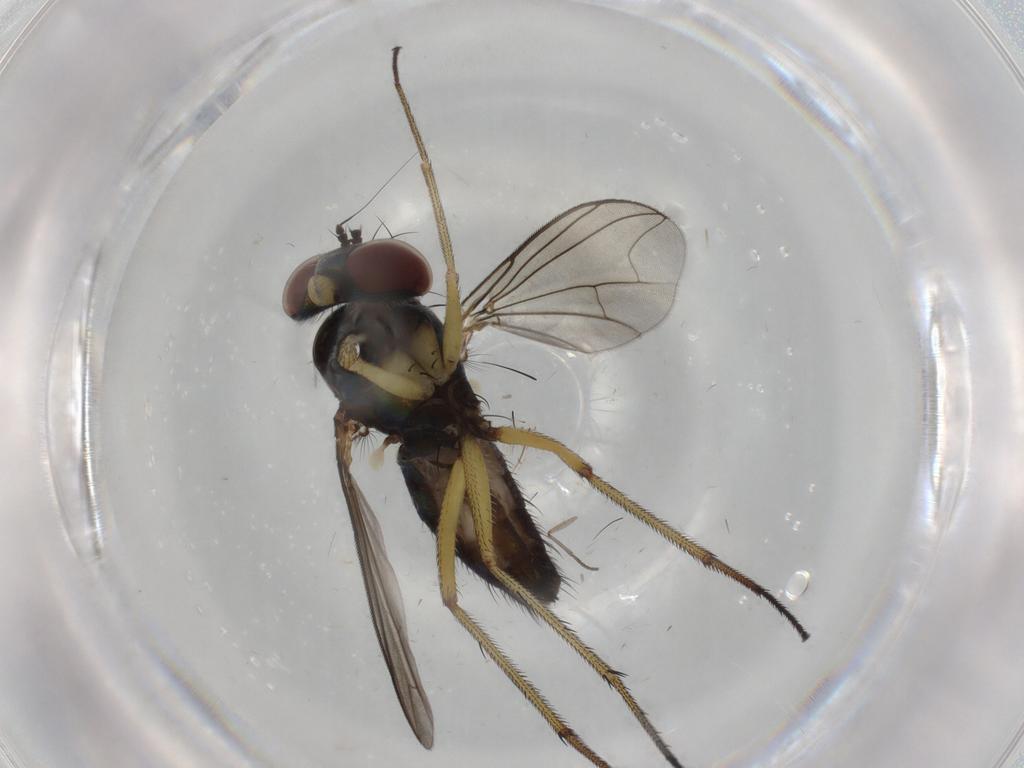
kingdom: Animalia
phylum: Arthropoda
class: Insecta
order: Diptera
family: Dolichopodidae
